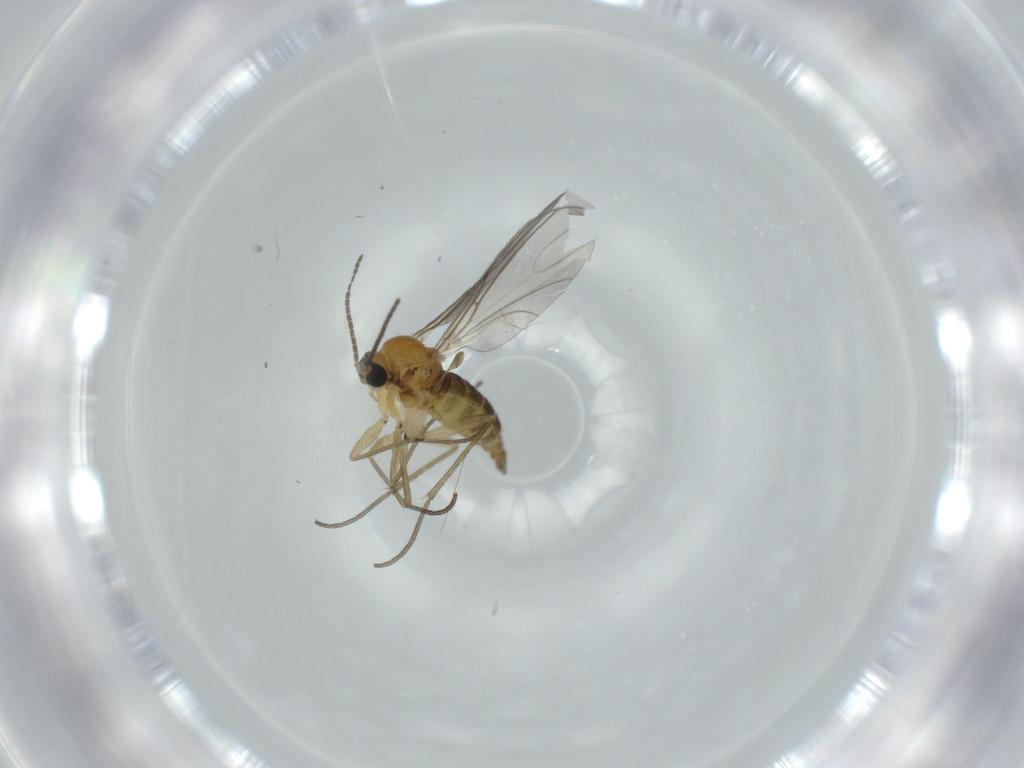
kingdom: Animalia
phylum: Arthropoda
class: Insecta
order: Diptera
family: Sciaridae
